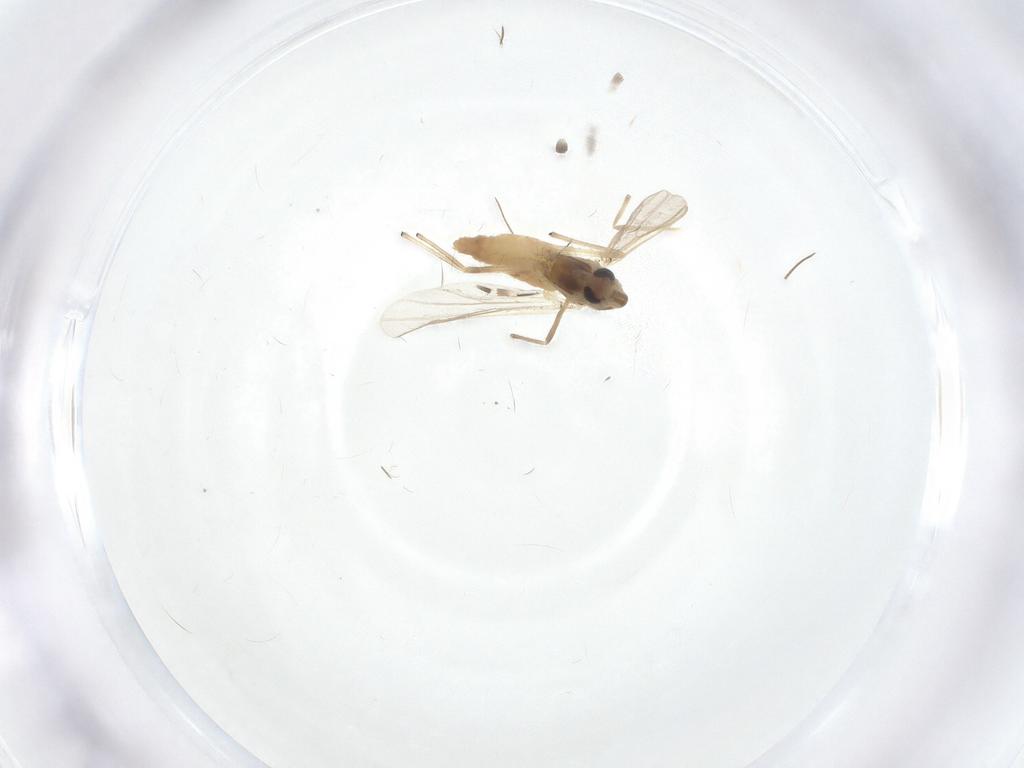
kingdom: Animalia
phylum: Arthropoda
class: Insecta
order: Diptera
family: Chironomidae
